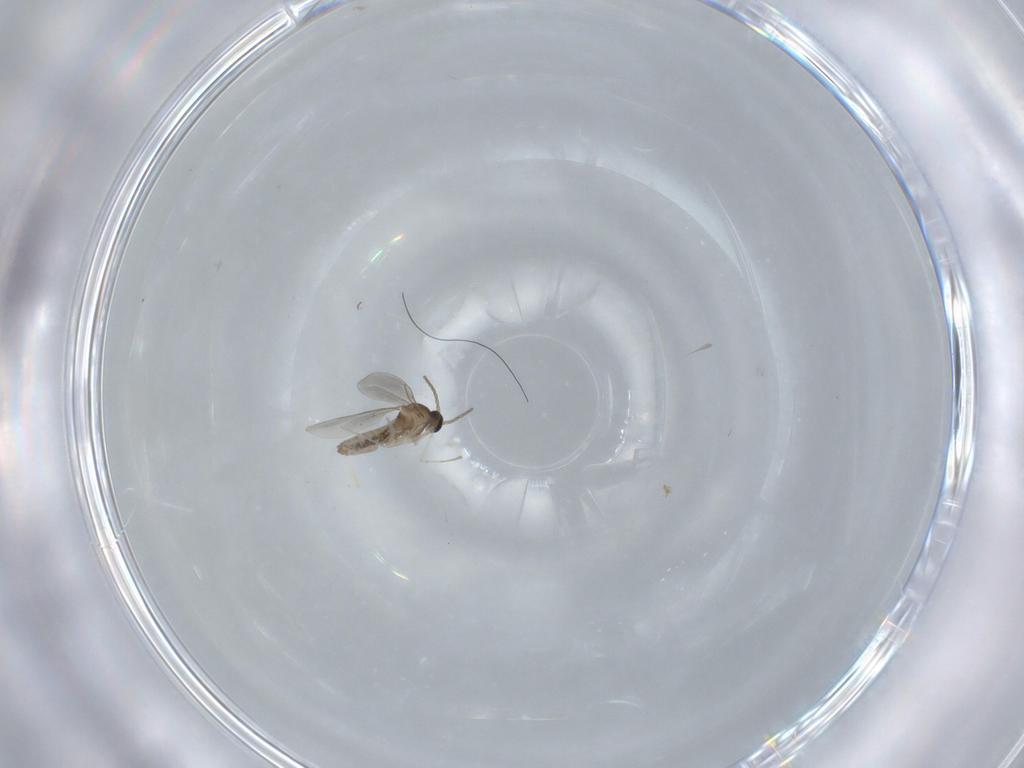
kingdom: Animalia
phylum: Arthropoda
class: Insecta
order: Diptera
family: Cecidomyiidae
